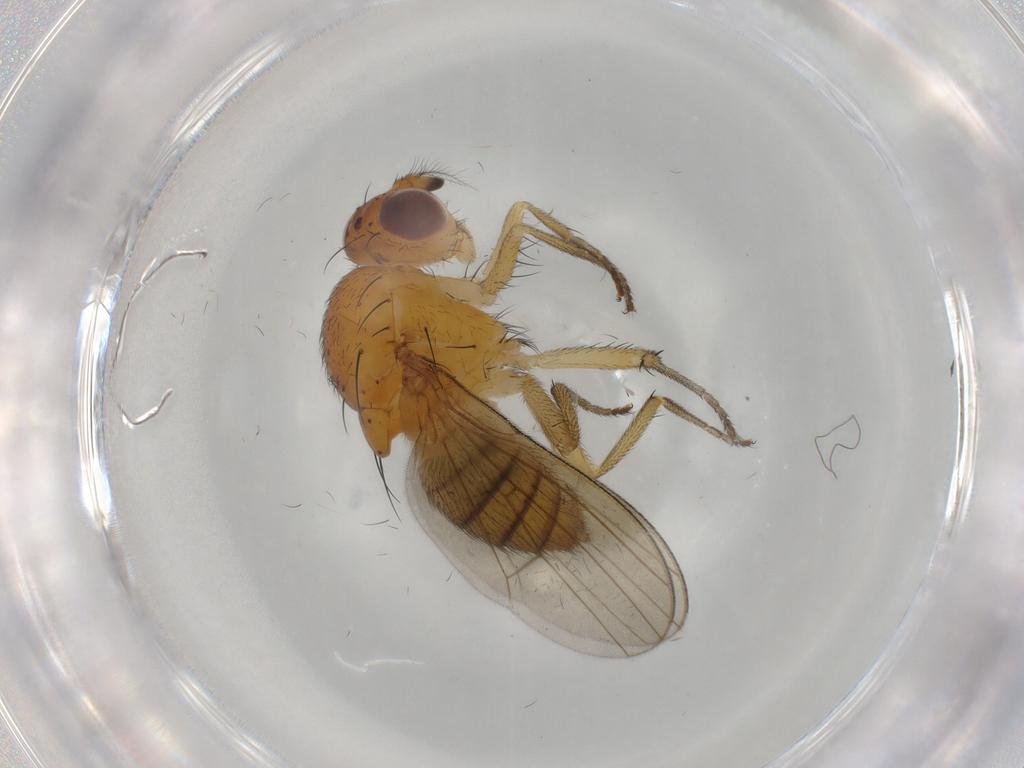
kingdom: Animalia
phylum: Arthropoda
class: Insecta
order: Diptera
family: Lauxaniidae
